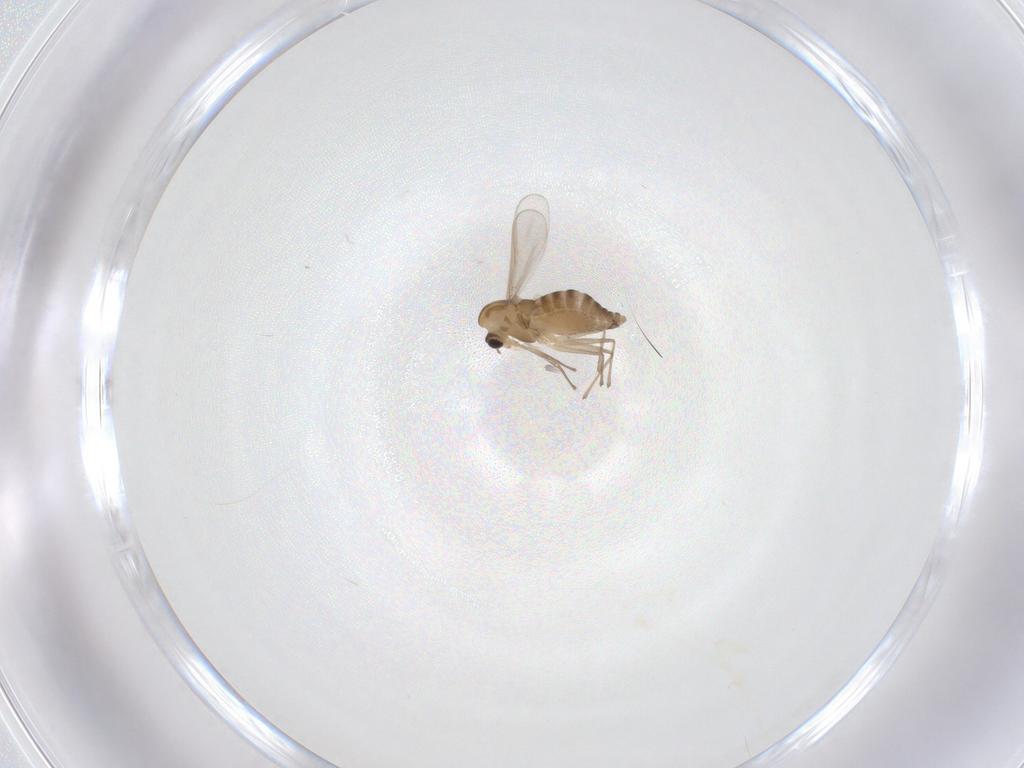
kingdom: Animalia
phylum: Arthropoda
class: Insecta
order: Diptera
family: Chironomidae
